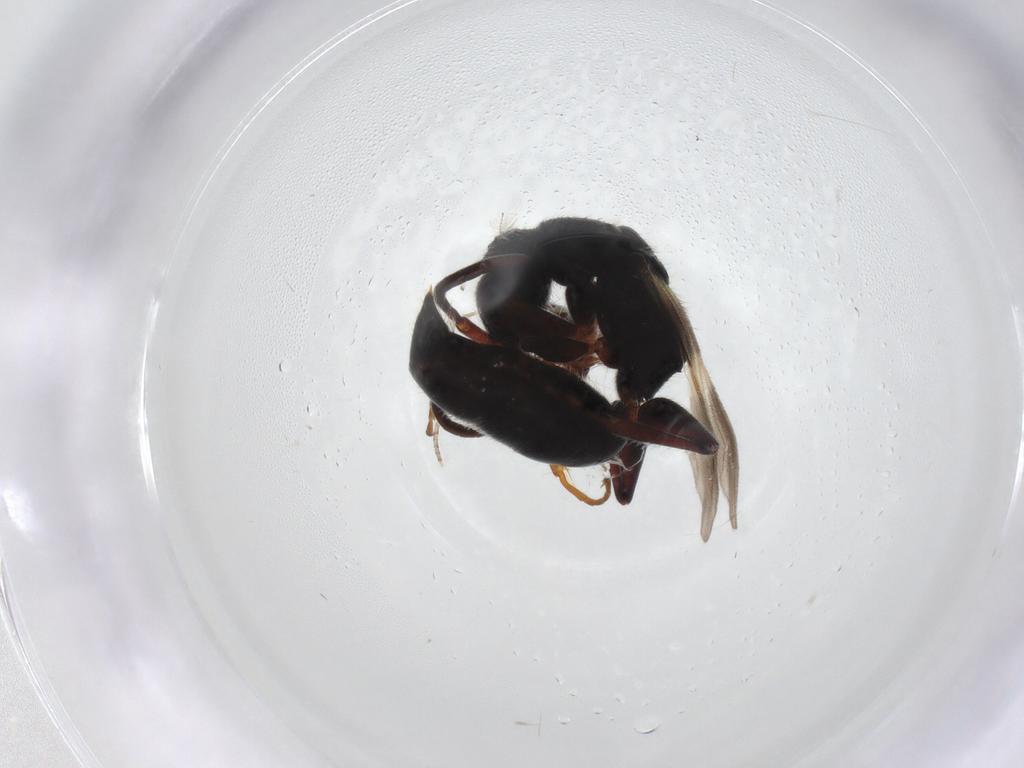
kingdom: Animalia
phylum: Arthropoda
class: Insecta
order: Hymenoptera
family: Bethylidae
